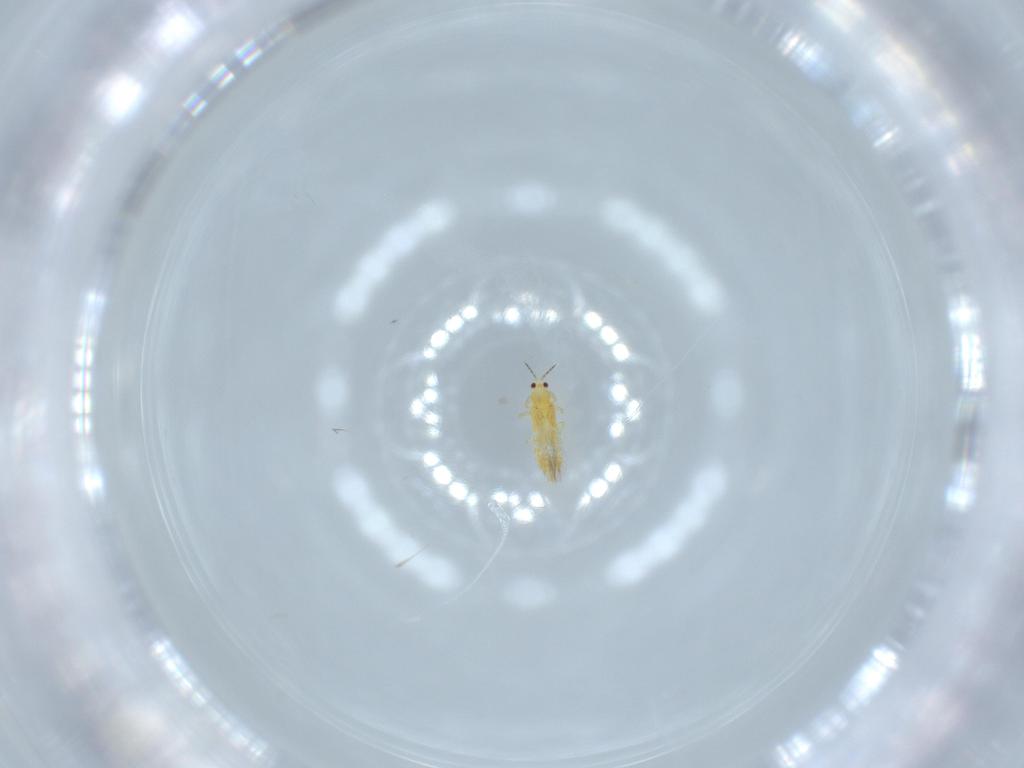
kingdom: Animalia
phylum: Arthropoda
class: Insecta
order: Thysanoptera
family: Thripidae
